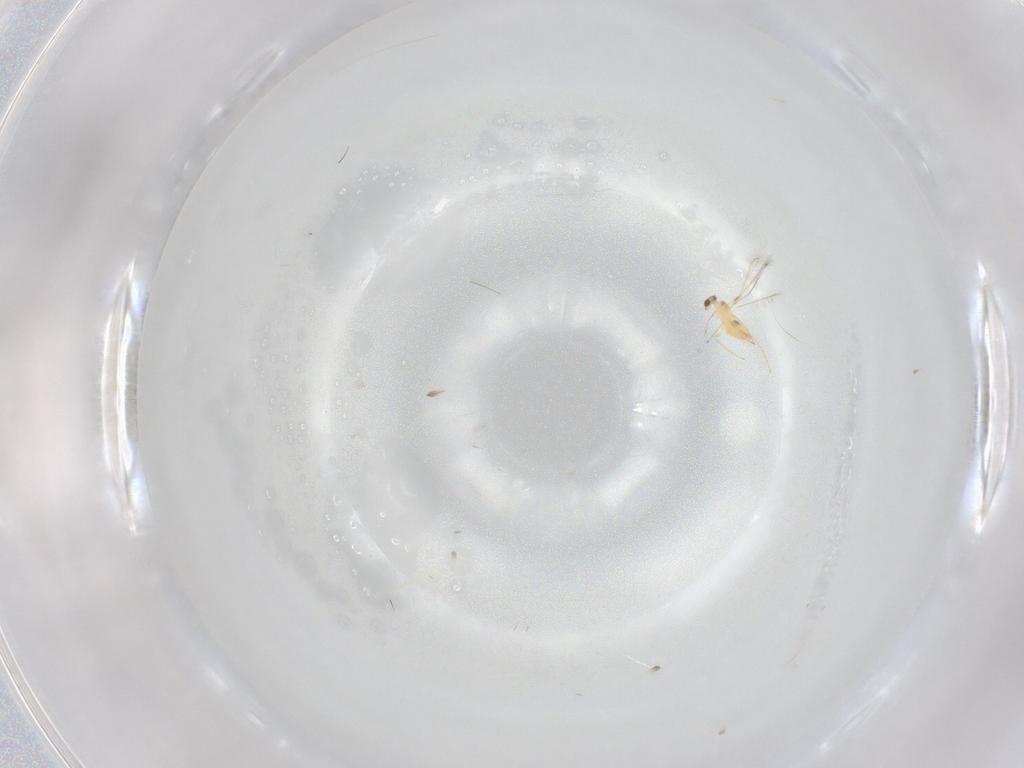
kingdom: Animalia
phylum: Arthropoda
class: Insecta
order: Hymenoptera
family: Mymaridae
